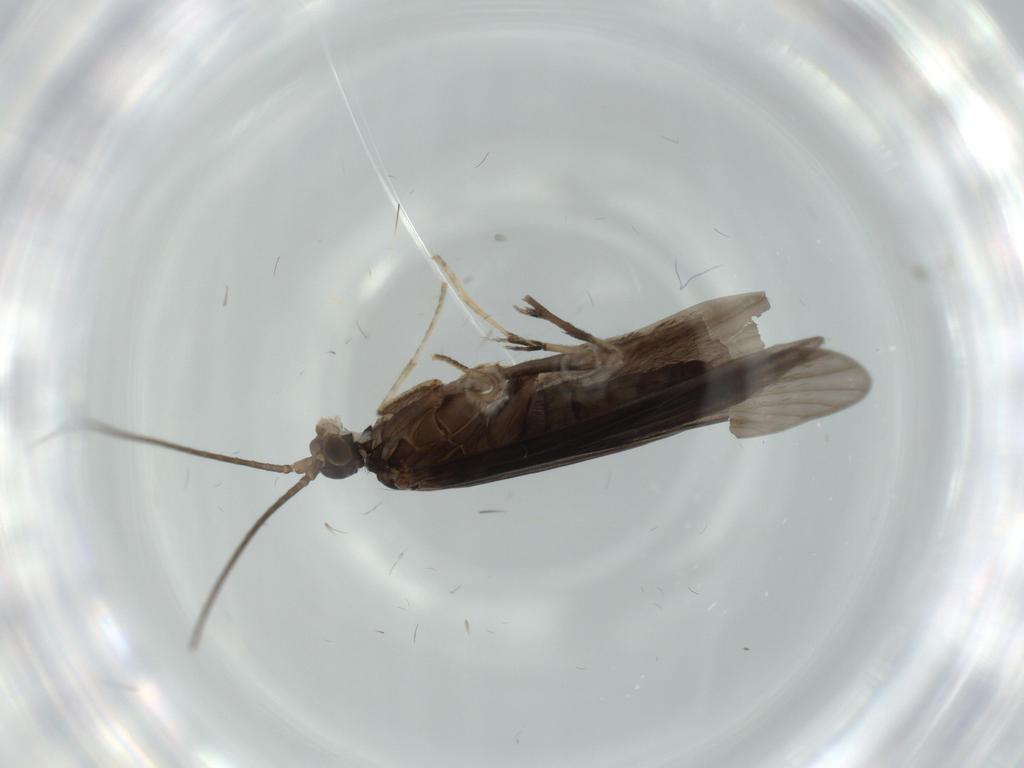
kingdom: Animalia
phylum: Arthropoda
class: Insecta
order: Trichoptera
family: Xiphocentronidae
